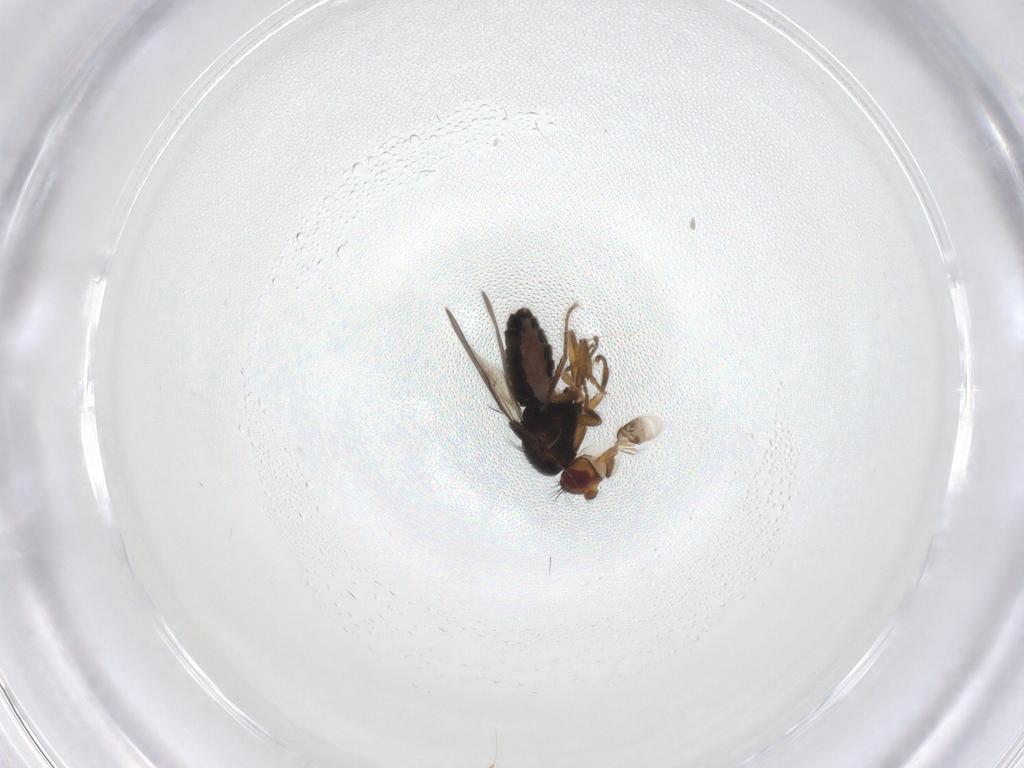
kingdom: Animalia
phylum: Arthropoda
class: Insecta
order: Diptera
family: Sphaeroceridae
